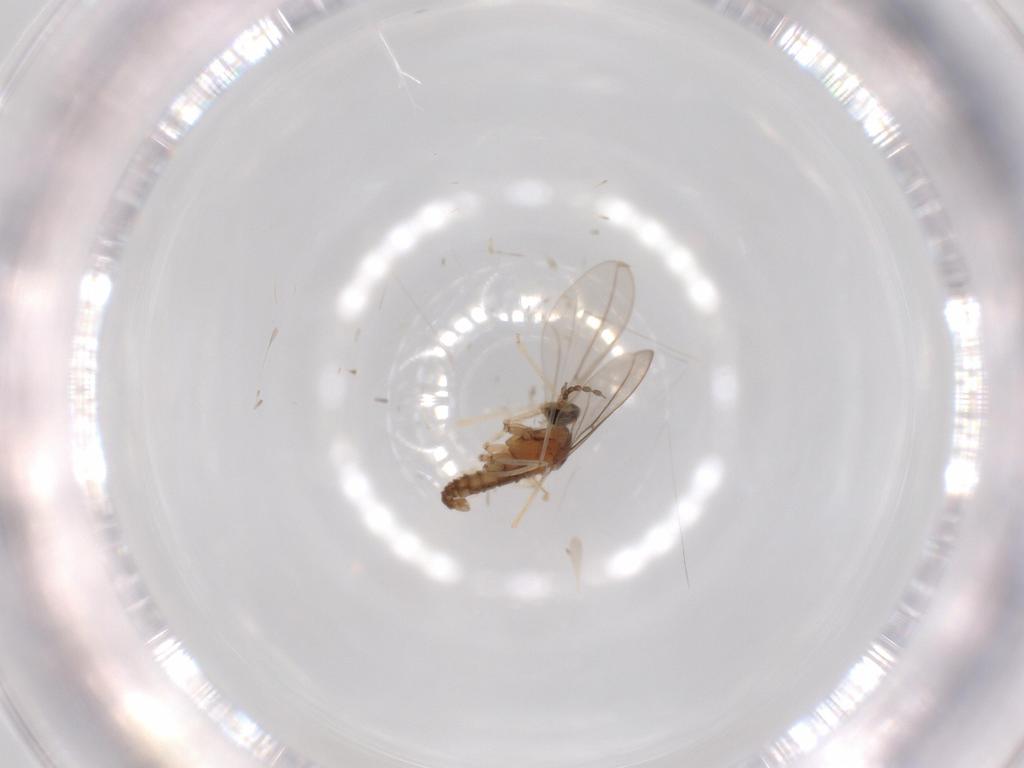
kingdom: Animalia
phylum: Arthropoda
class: Insecta
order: Diptera
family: Cecidomyiidae
